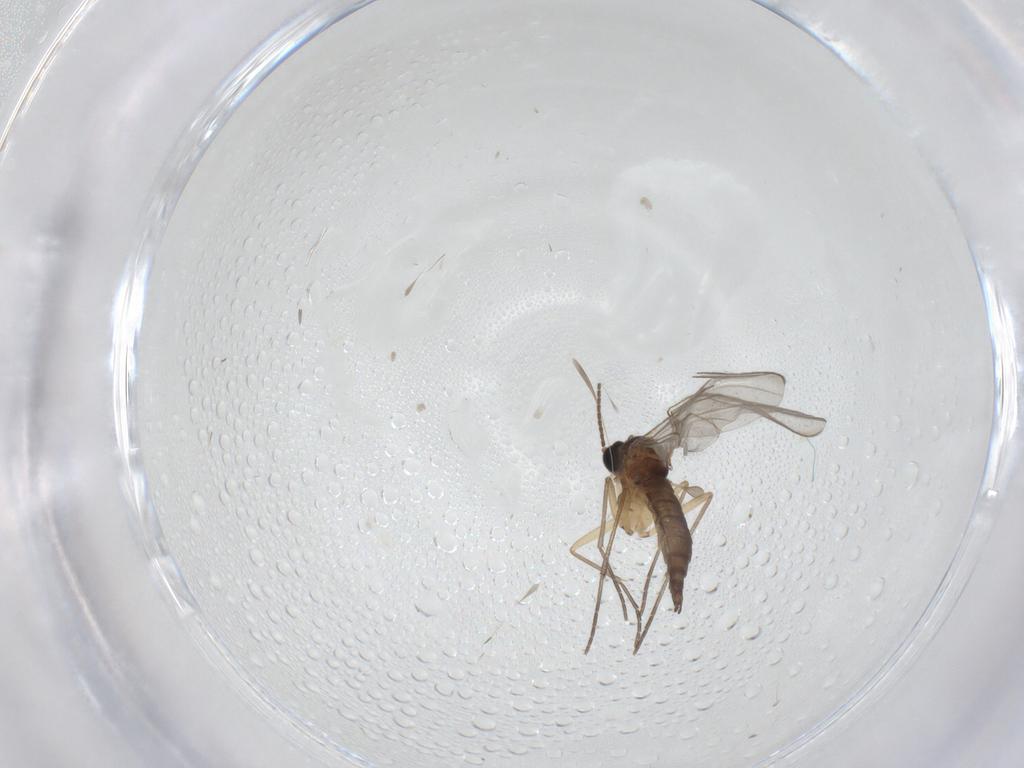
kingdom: Animalia
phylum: Arthropoda
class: Insecta
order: Diptera
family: Sciaridae
